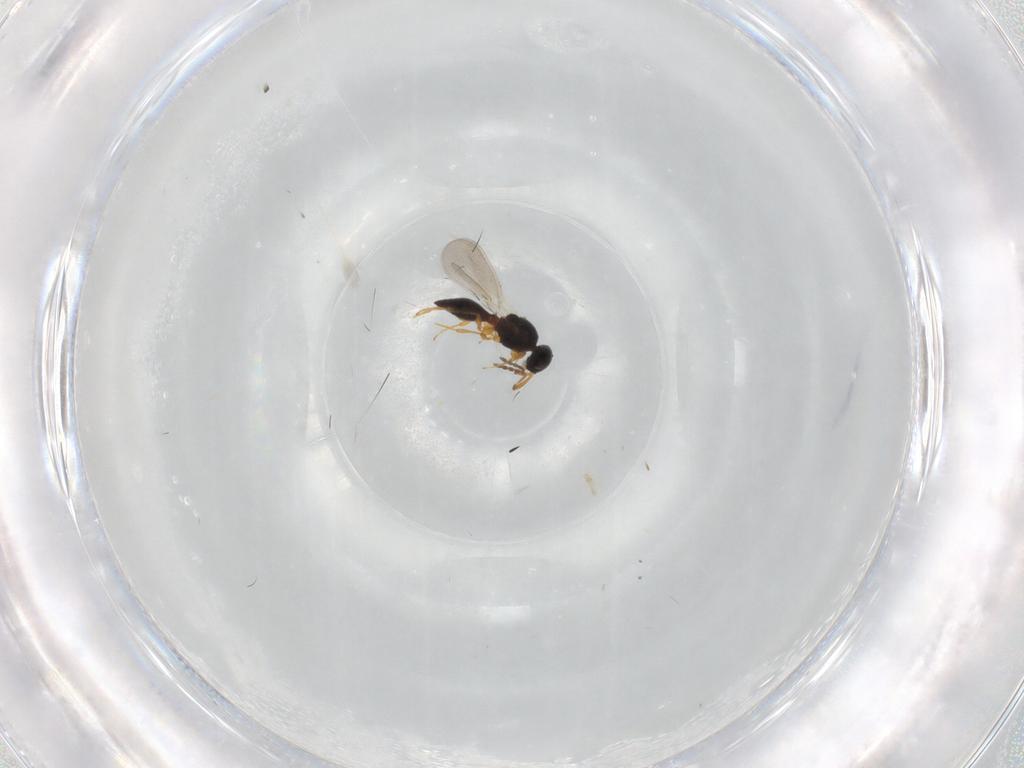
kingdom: Animalia
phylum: Arthropoda
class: Insecta
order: Hymenoptera
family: Platygastridae
